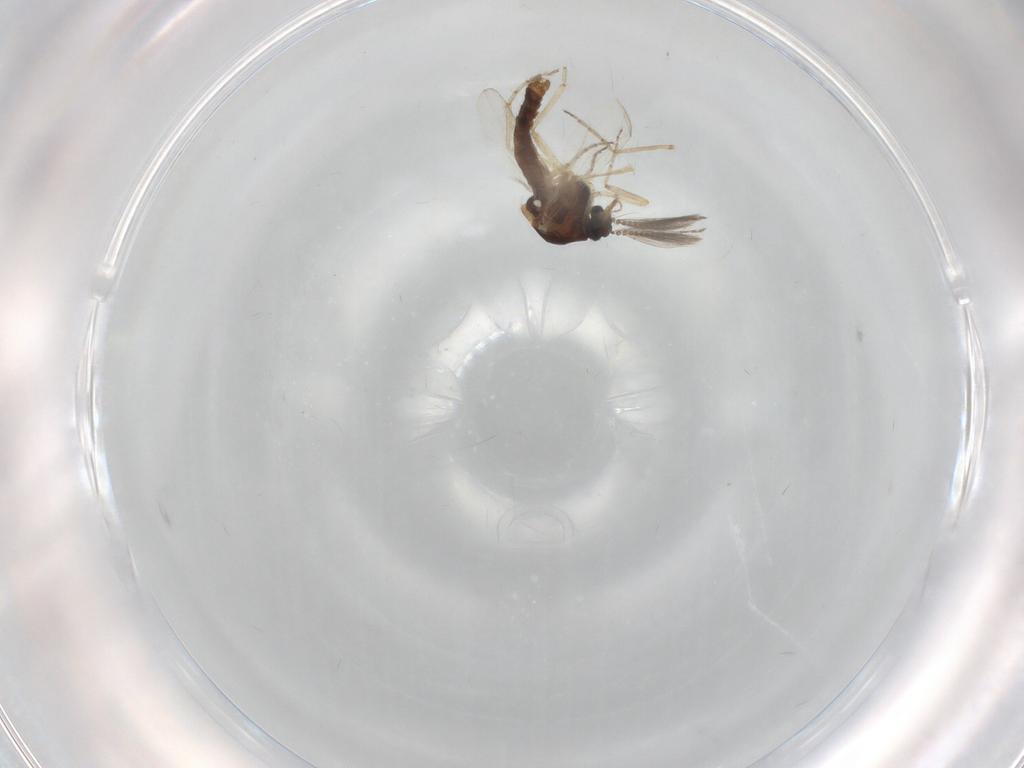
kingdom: Animalia
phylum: Arthropoda
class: Insecta
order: Diptera
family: Ceratopogonidae
